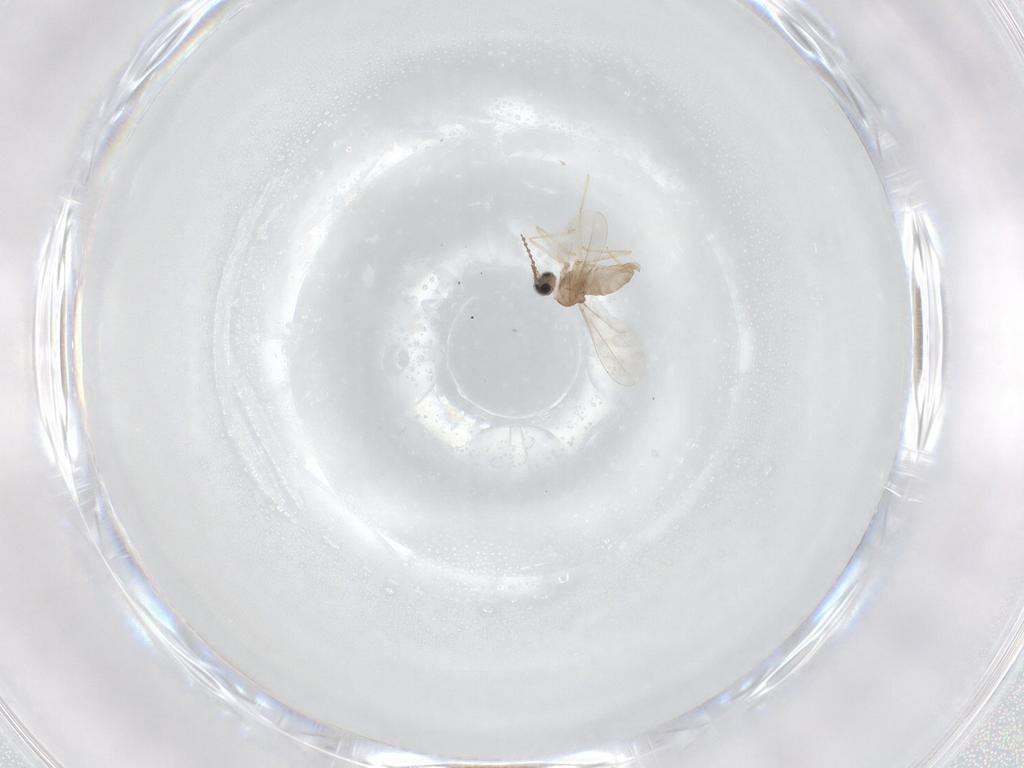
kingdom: Animalia
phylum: Arthropoda
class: Insecta
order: Diptera
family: Cecidomyiidae
